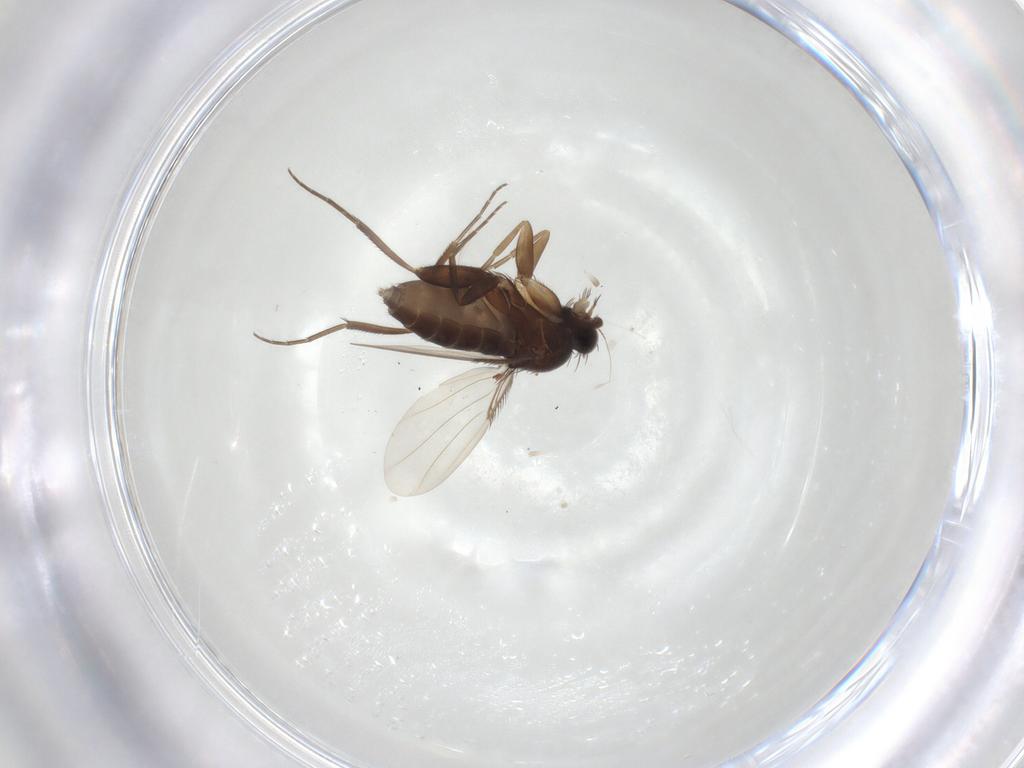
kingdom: Animalia
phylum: Arthropoda
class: Insecta
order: Diptera
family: Phoridae
